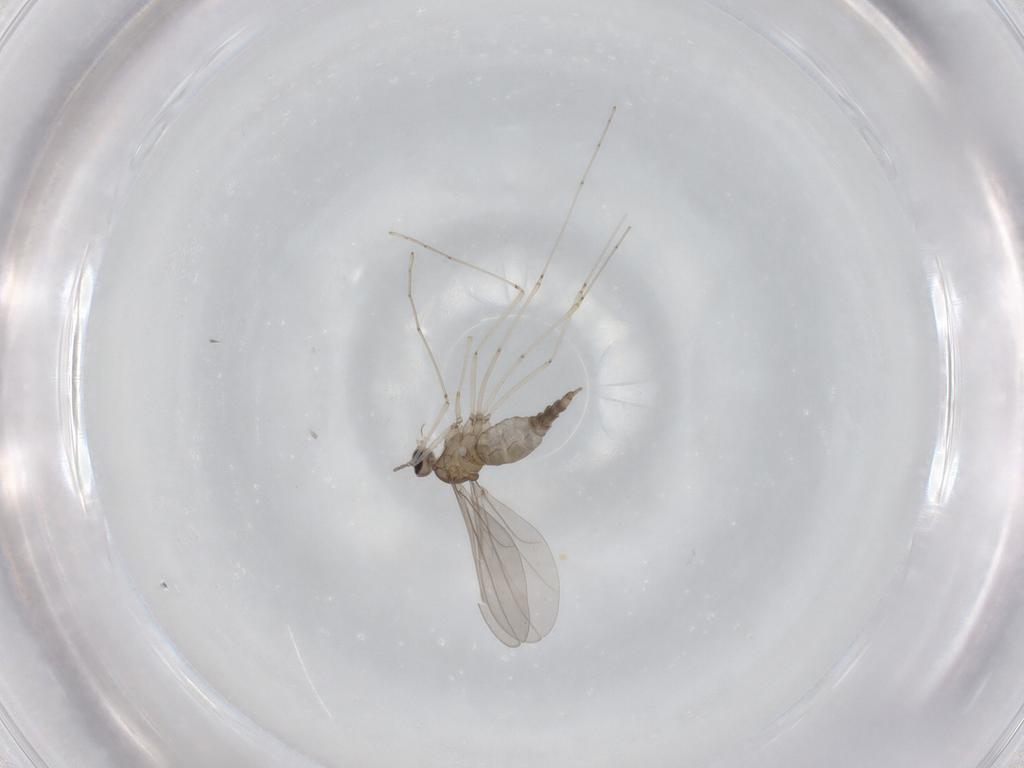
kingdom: Animalia
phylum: Arthropoda
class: Insecta
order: Diptera
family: Cecidomyiidae
